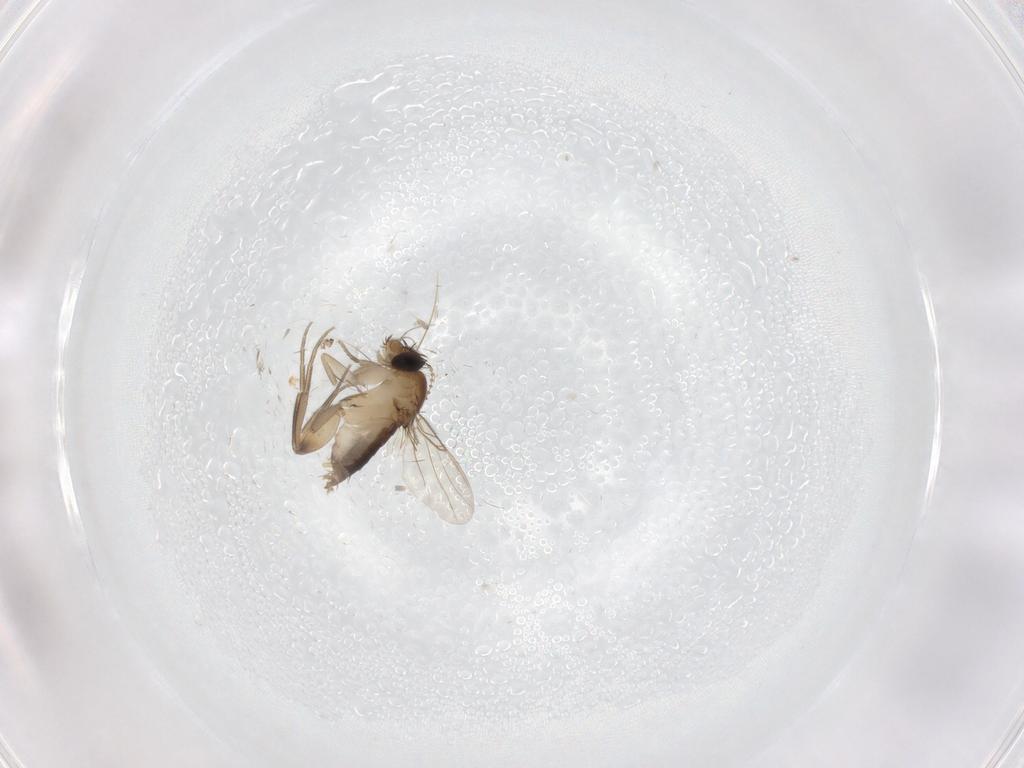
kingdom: Animalia
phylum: Arthropoda
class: Insecta
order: Diptera
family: Phoridae
